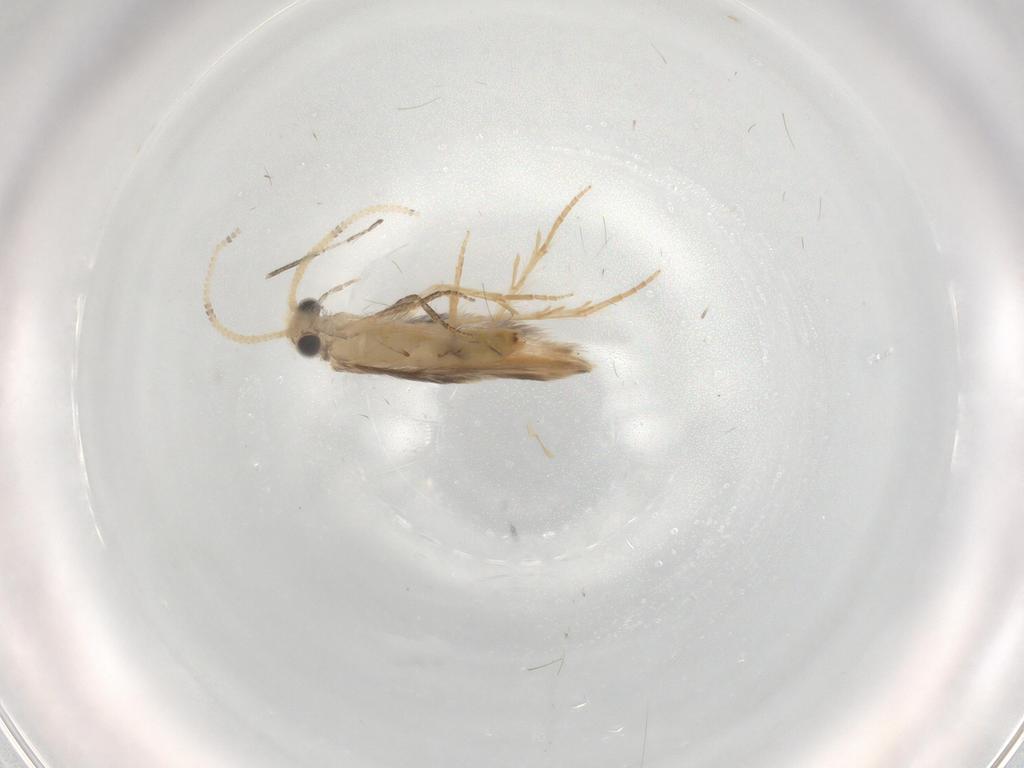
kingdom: Animalia
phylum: Arthropoda
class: Insecta
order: Trichoptera
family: Hydroptilidae
